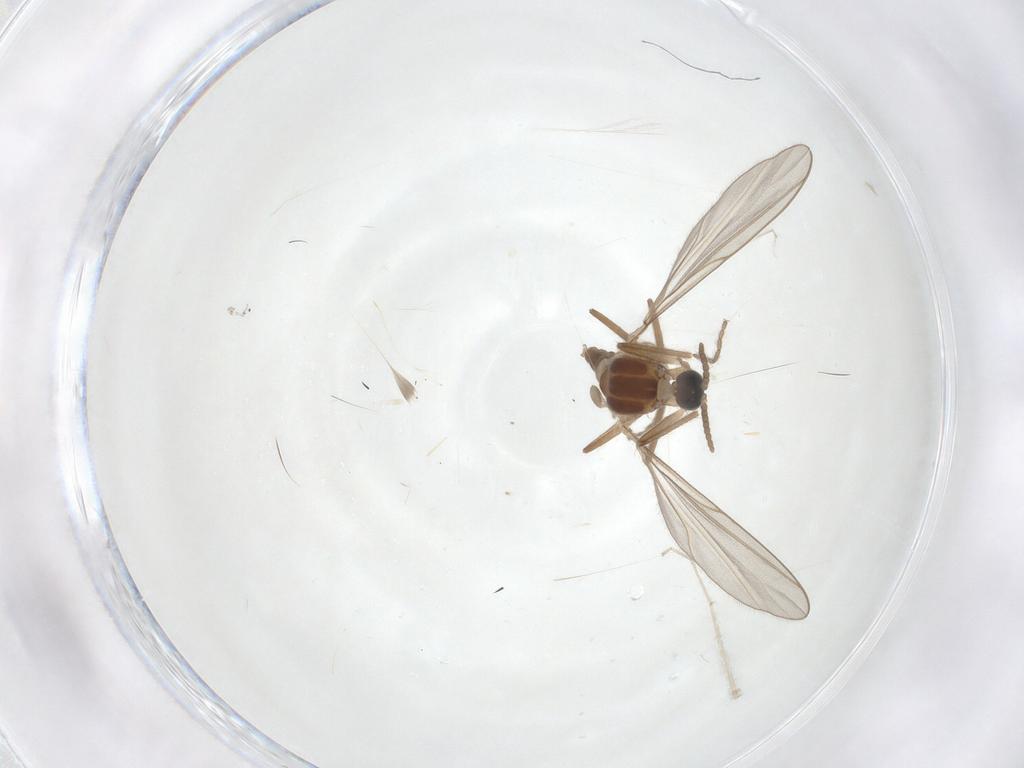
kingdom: Animalia
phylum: Arthropoda
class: Insecta
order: Diptera
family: Cecidomyiidae
